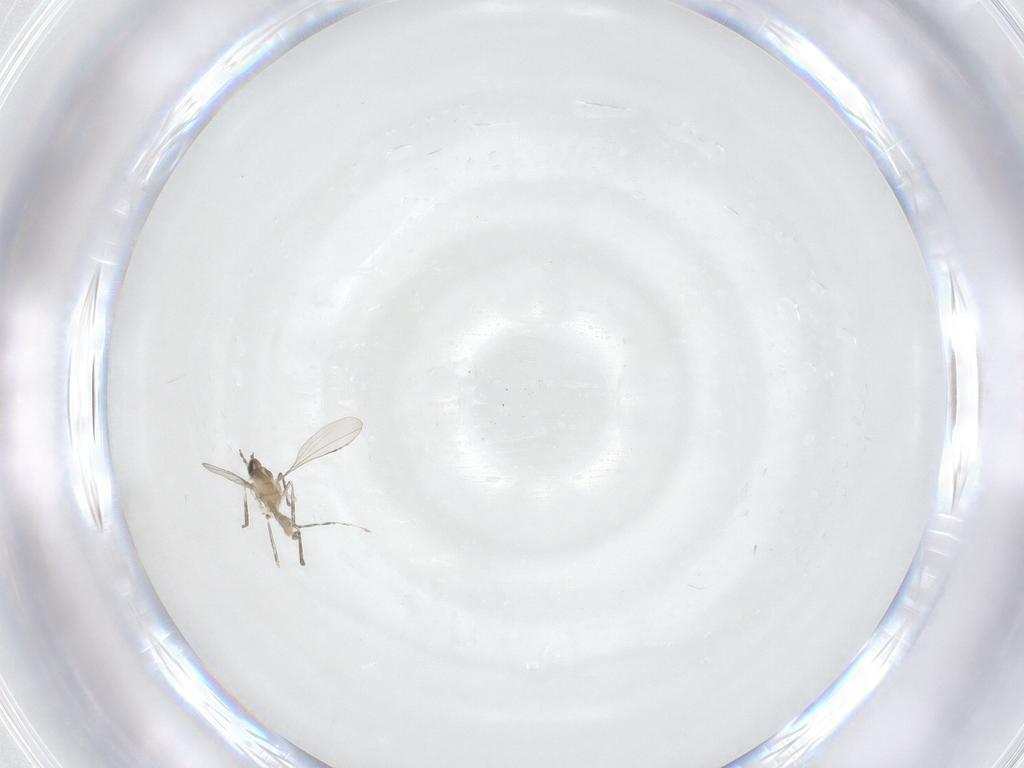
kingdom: Animalia
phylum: Arthropoda
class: Insecta
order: Diptera
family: Cecidomyiidae
